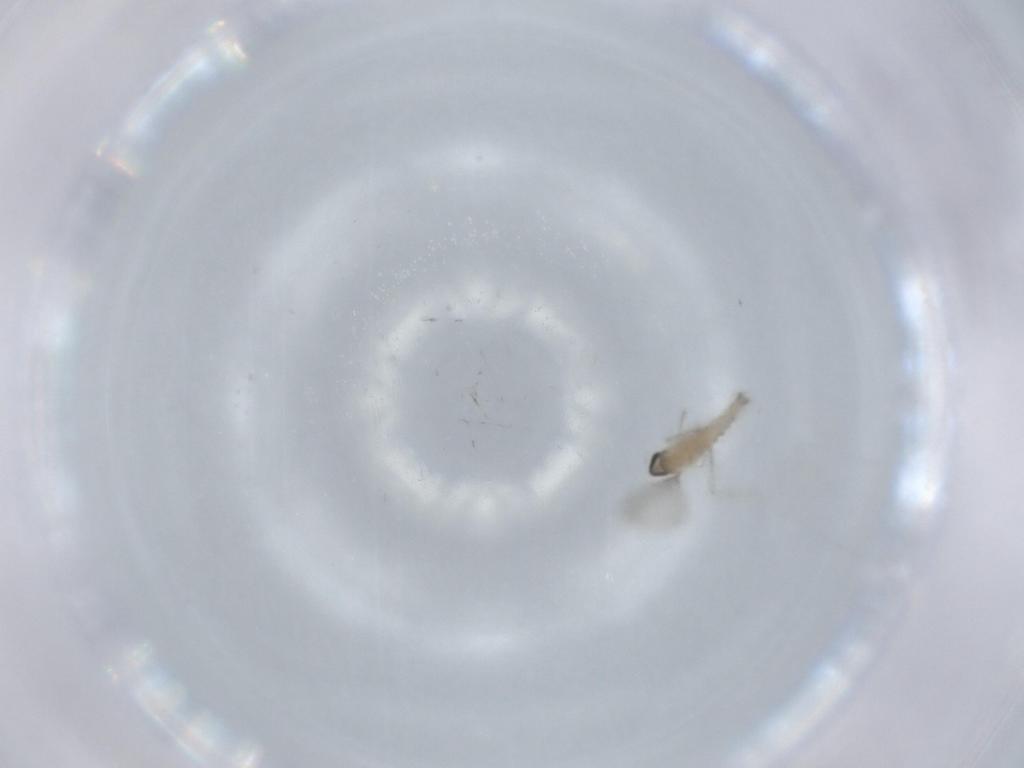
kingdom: Animalia
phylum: Arthropoda
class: Insecta
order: Diptera
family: Cecidomyiidae
